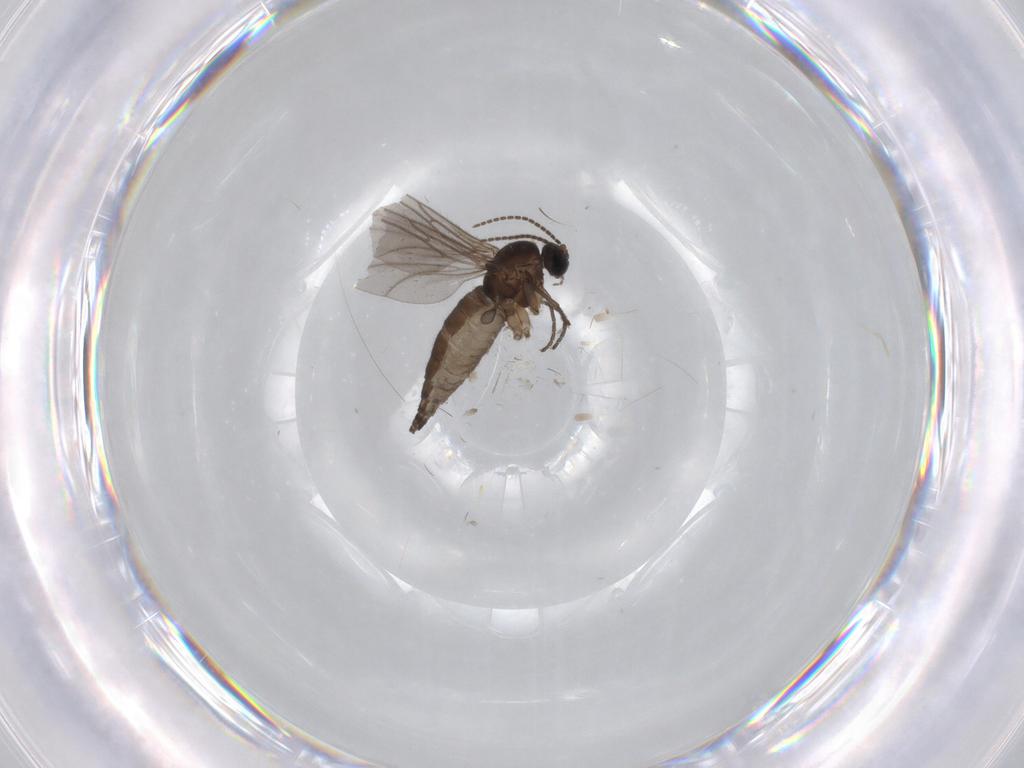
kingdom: Animalia
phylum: Arthropoda
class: Insecta
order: Diptera
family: Sciaridae
